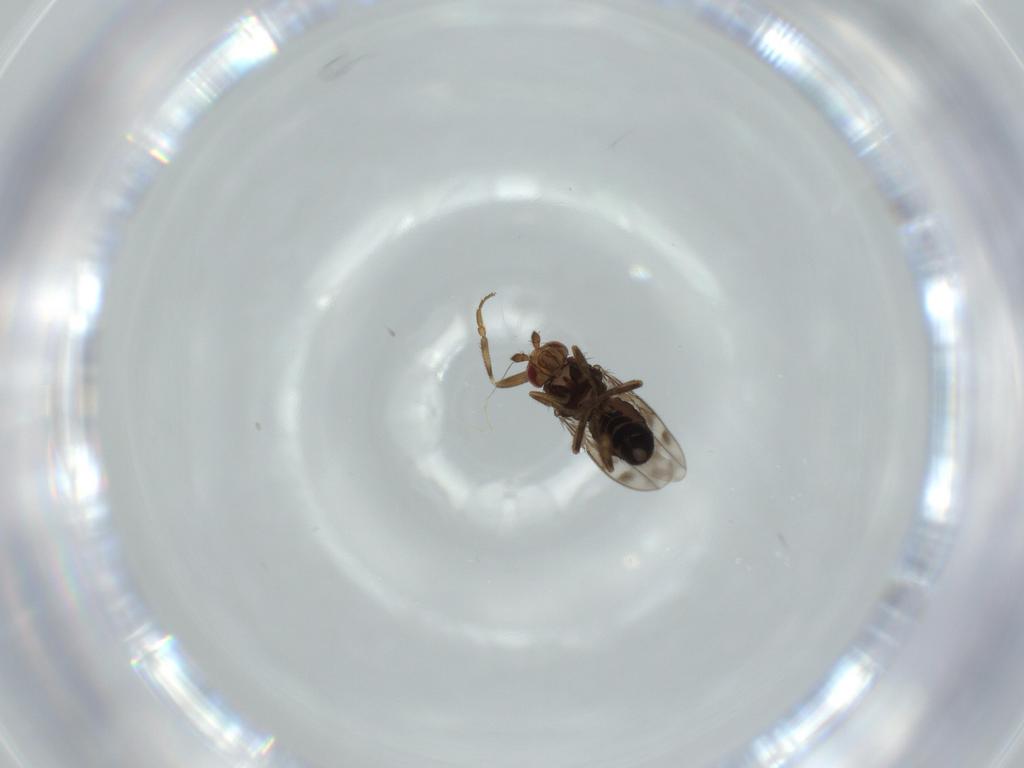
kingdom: Animalia
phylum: Arthropoda
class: Insecta
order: Diptera
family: Sphaeroceridae
